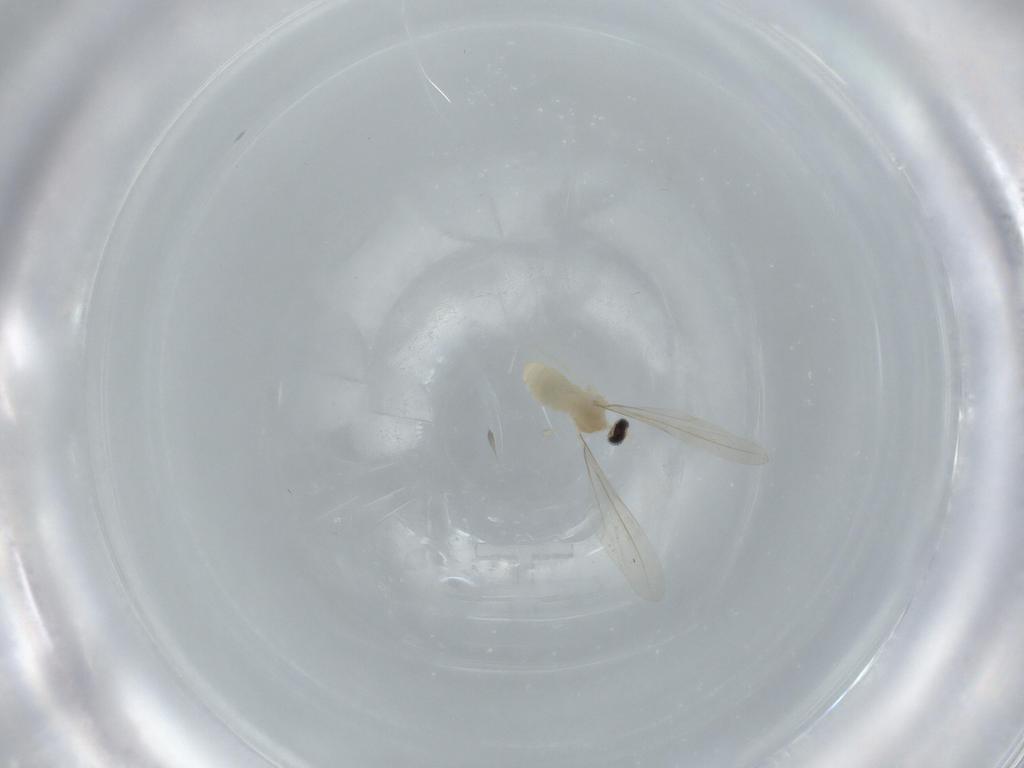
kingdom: Animalia
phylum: Arthropoda
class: Insecta
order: Diptera
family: Cecidomyiidae
